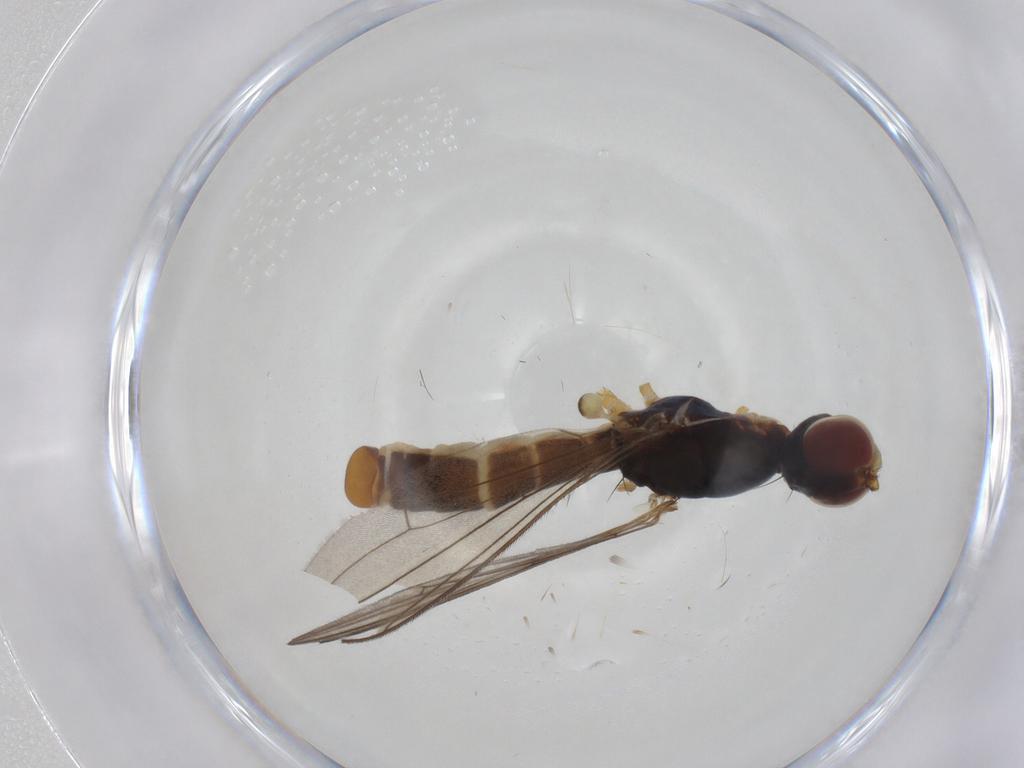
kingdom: Animalia
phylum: Arthropoda
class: Insecta
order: Diptera
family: Micropezidae
